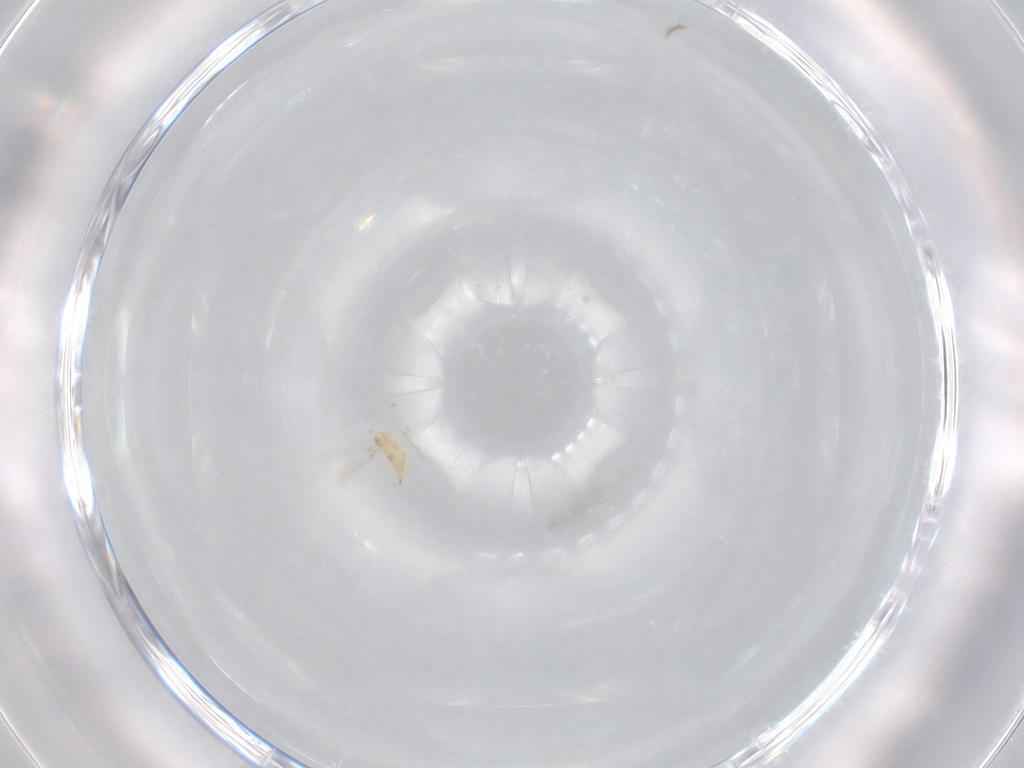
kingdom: Animalia
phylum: Arthropoda
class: Insecta
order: Hymenoptera
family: Mymaridae
